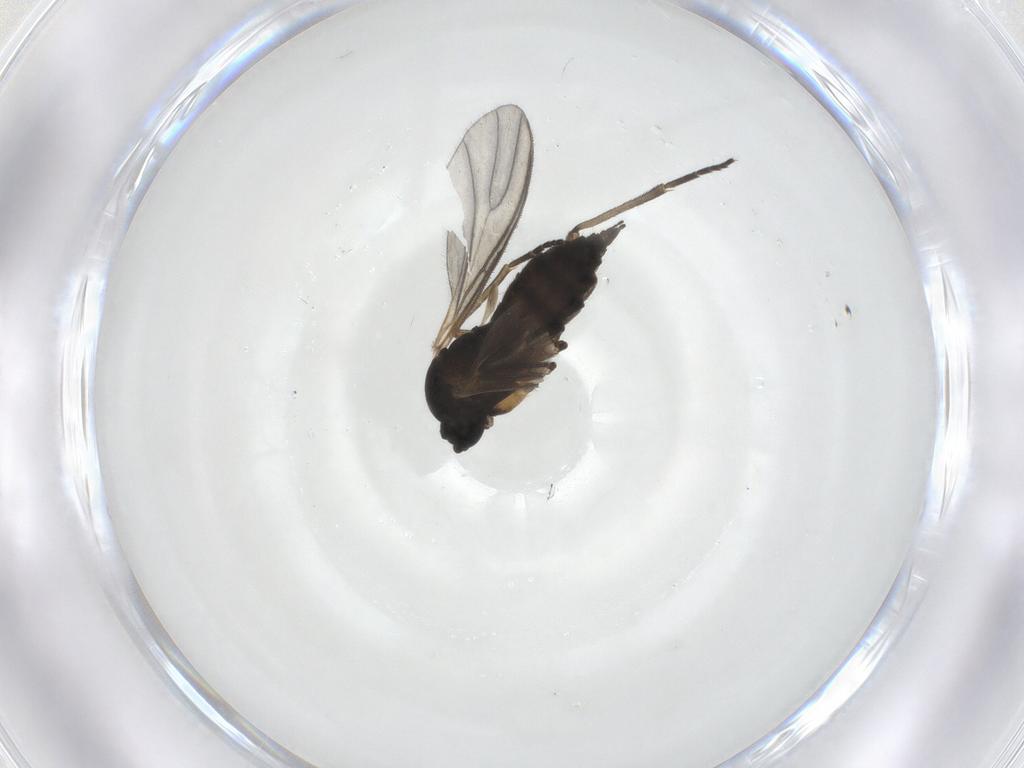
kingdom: Animalia
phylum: Arthropoda
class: Insecta
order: Diptera
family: Sciaridae
